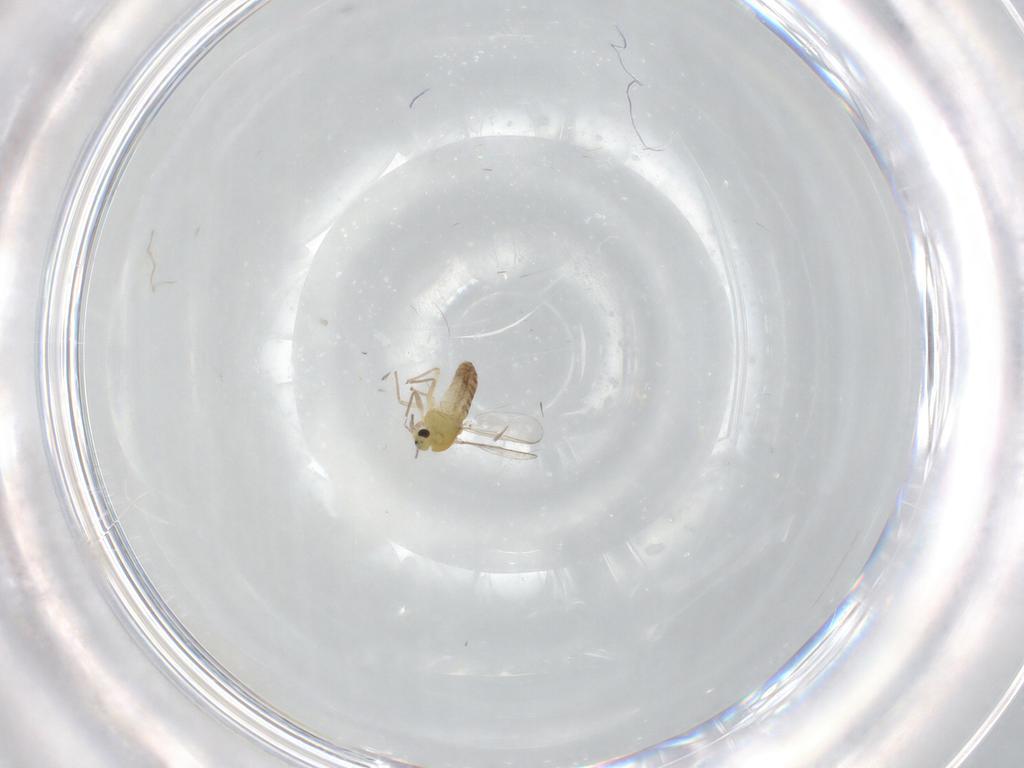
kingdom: Animalia
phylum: Arthropoda
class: Insecta
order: Diptera
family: Chironomidae
